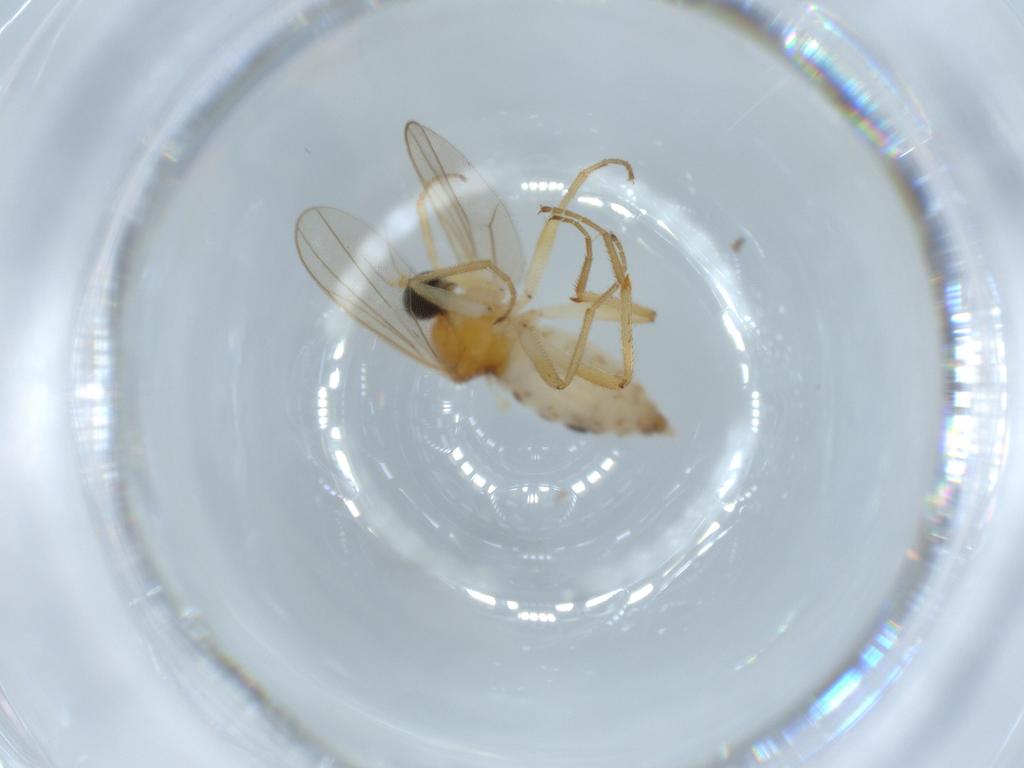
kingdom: Animalia
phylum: Arthropoda
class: Insecta
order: Diptera
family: Hybotidae
